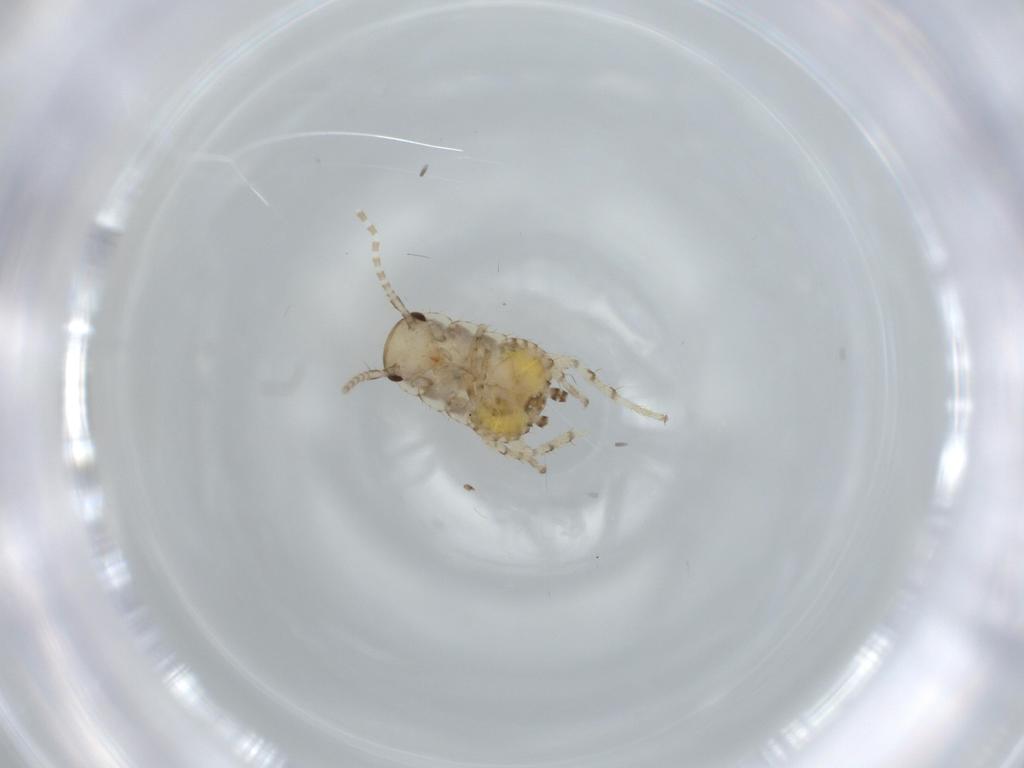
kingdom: Animalia
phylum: Arthropoda
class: Insecta
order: Blattodea
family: Ectobiidae
